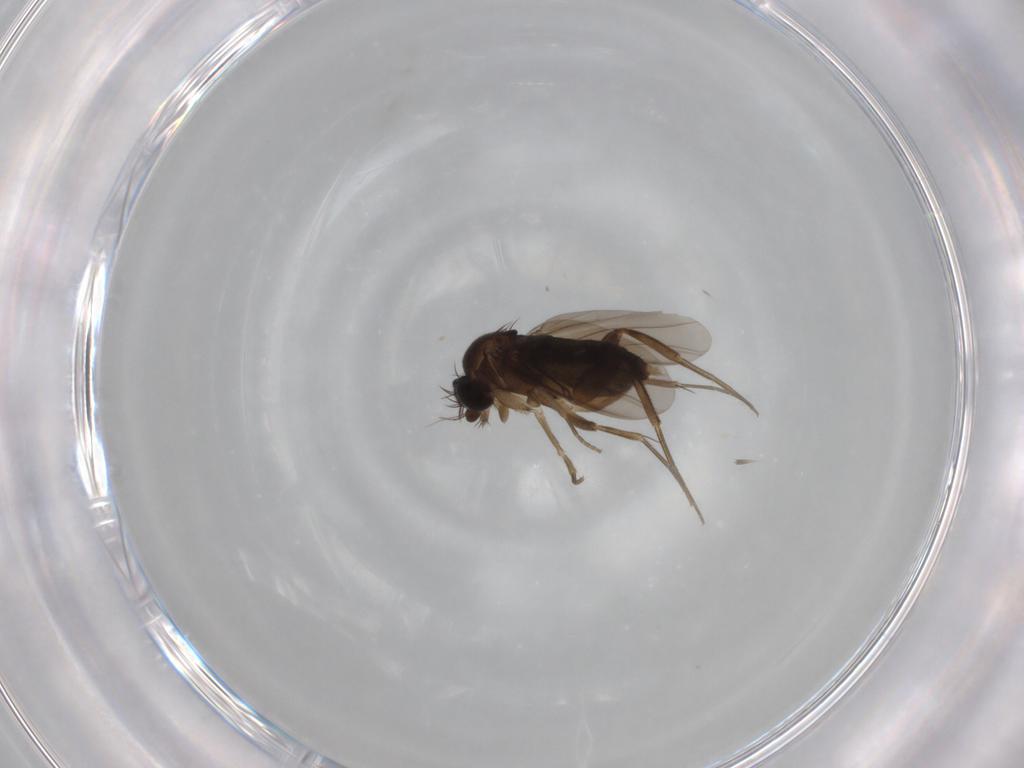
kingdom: Animalia
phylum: Arthropoda
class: Insecta
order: Diptera
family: Phoridae
